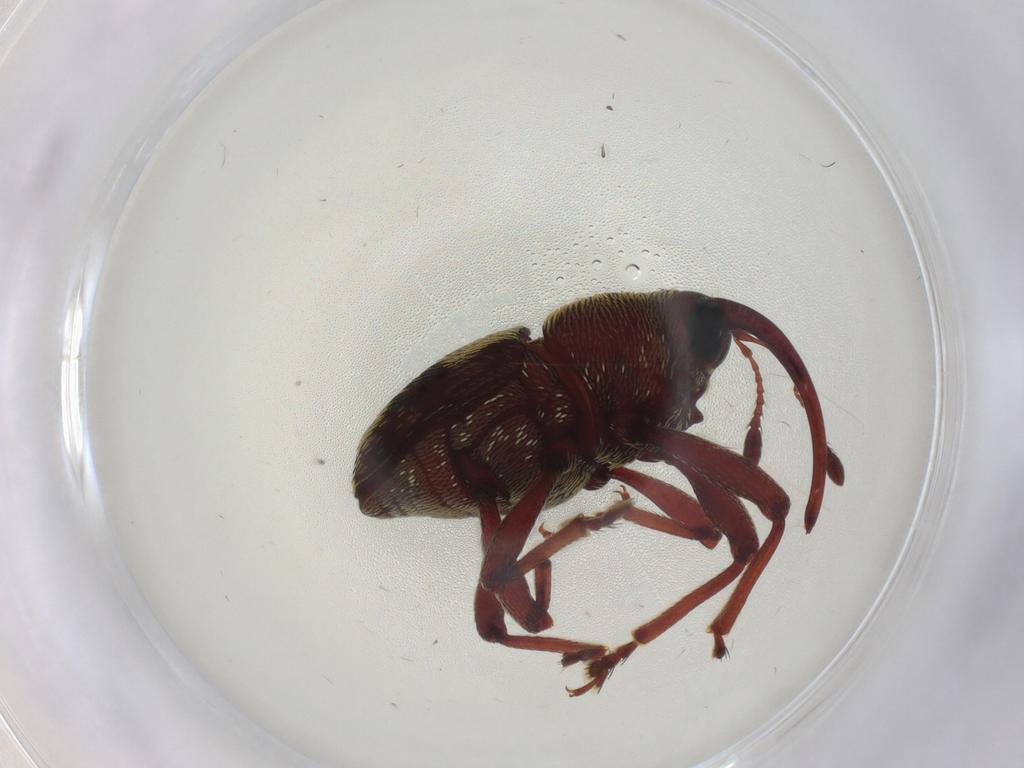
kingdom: Animalia
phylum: Arthropoda
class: Insecta
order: Coleoptera
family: Curculionidae
